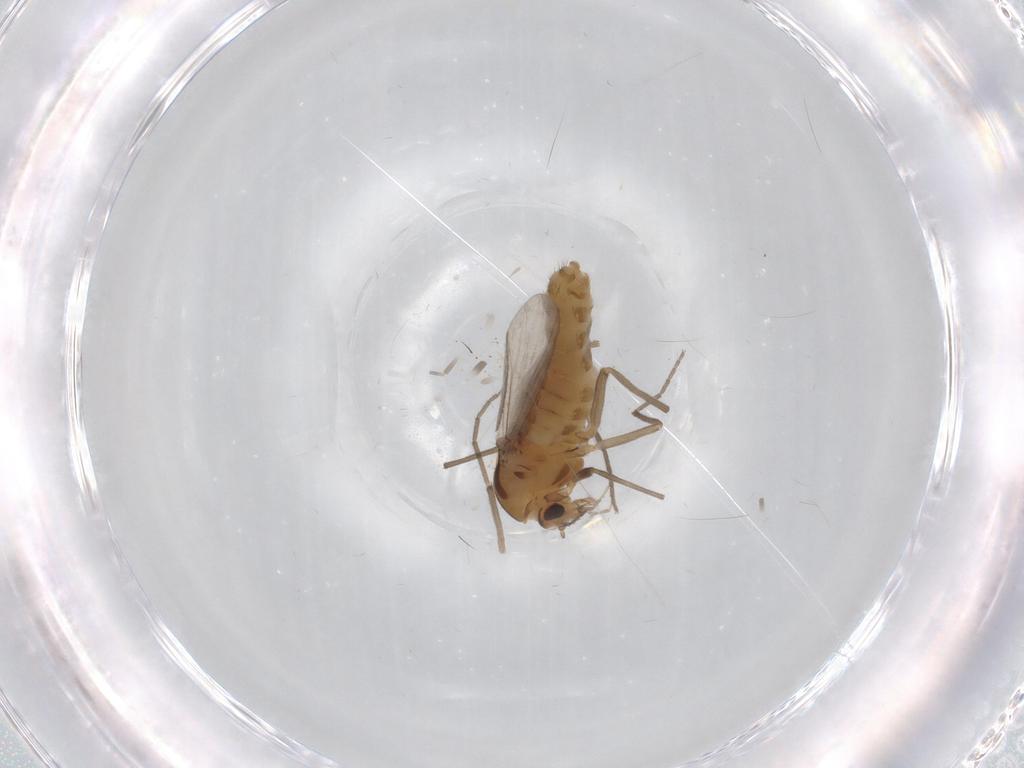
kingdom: Animalia
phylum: Arthropoda
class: Insecta
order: Diptera
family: Chironomidae
